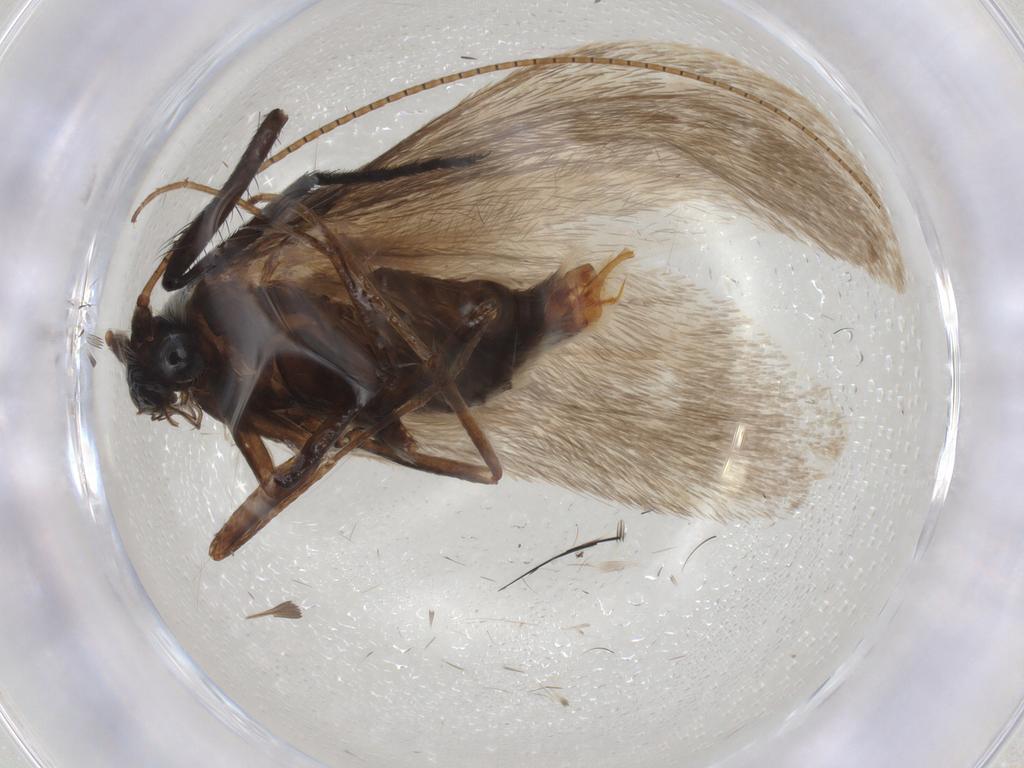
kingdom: Animalia
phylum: Arthropoda
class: Insecta
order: Lepidoptera
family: Adelidae
